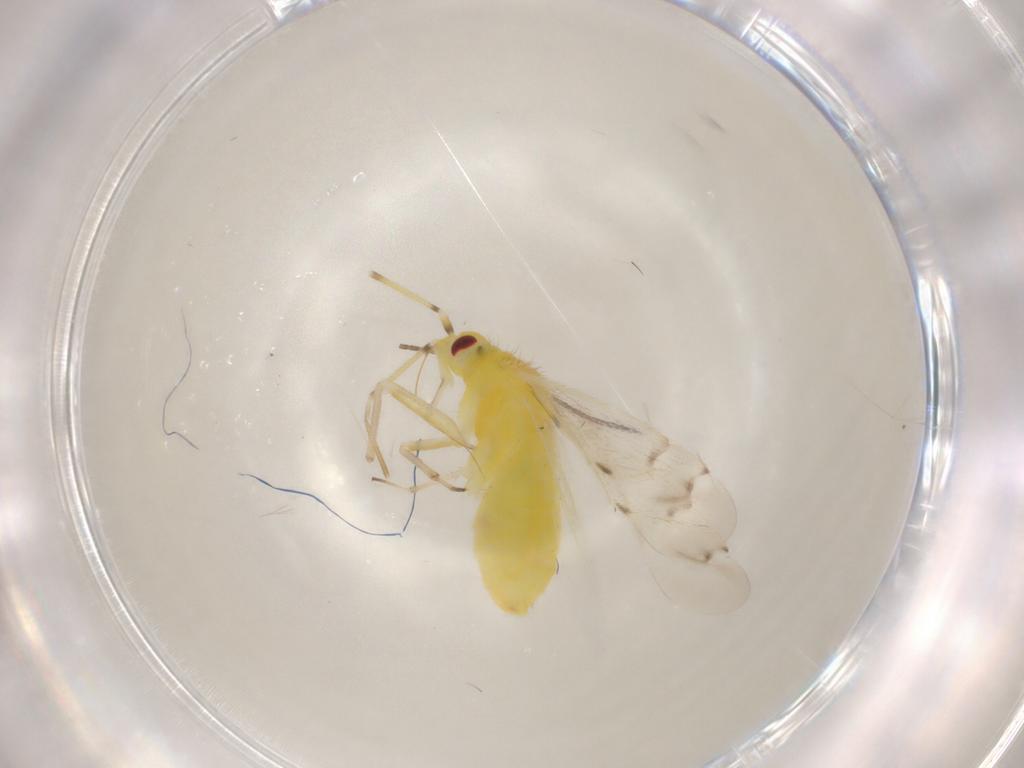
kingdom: Animalia
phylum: Arthropoda
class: Insecta
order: Hemiptera
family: Miridae
